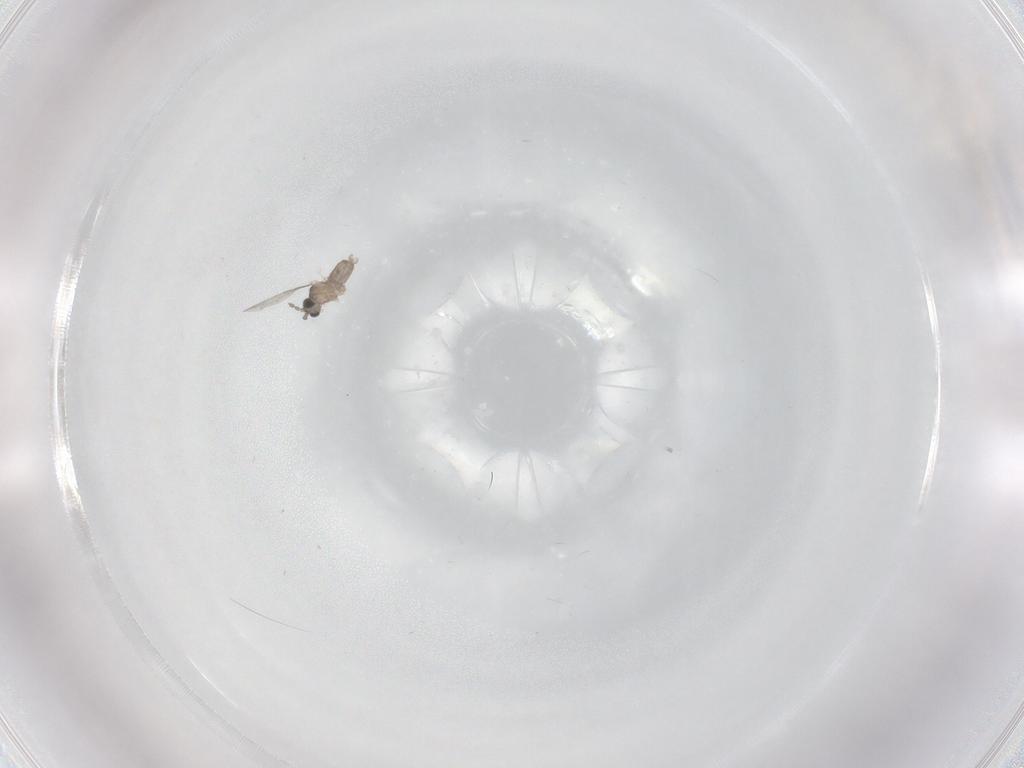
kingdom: Animalia
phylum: Arthropoda
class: Insecta
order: Diptera
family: Cecidomyiidae
